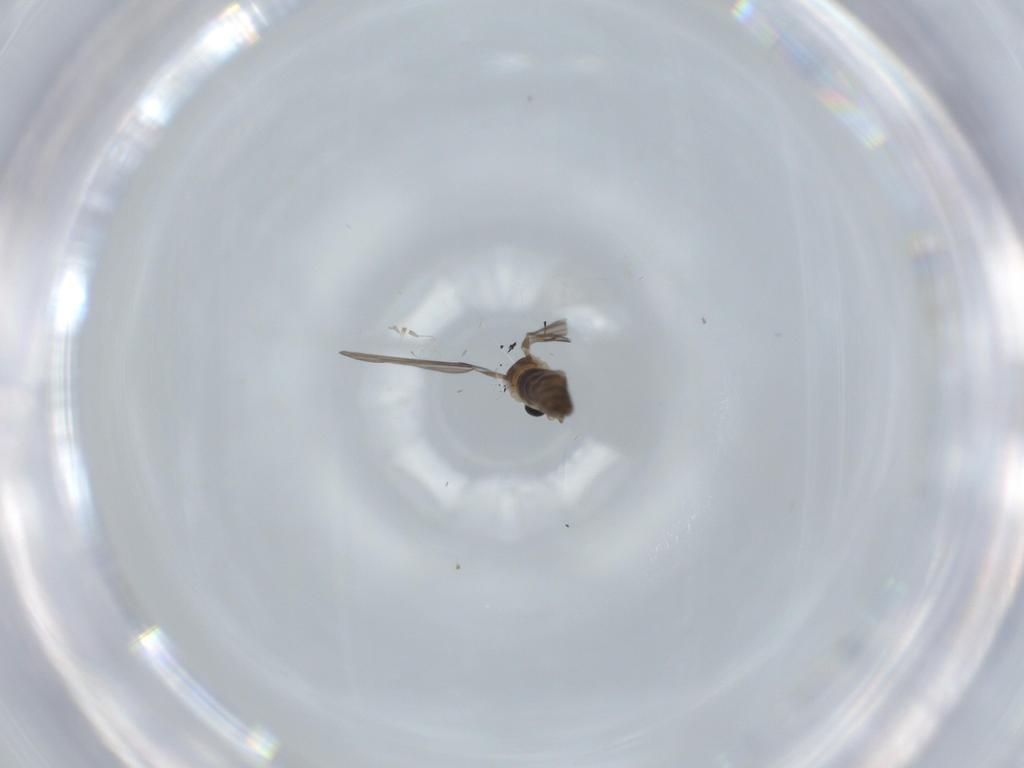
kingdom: Animalia
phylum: Arthropoda
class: Insecta
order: Diptera
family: Psychodidae
